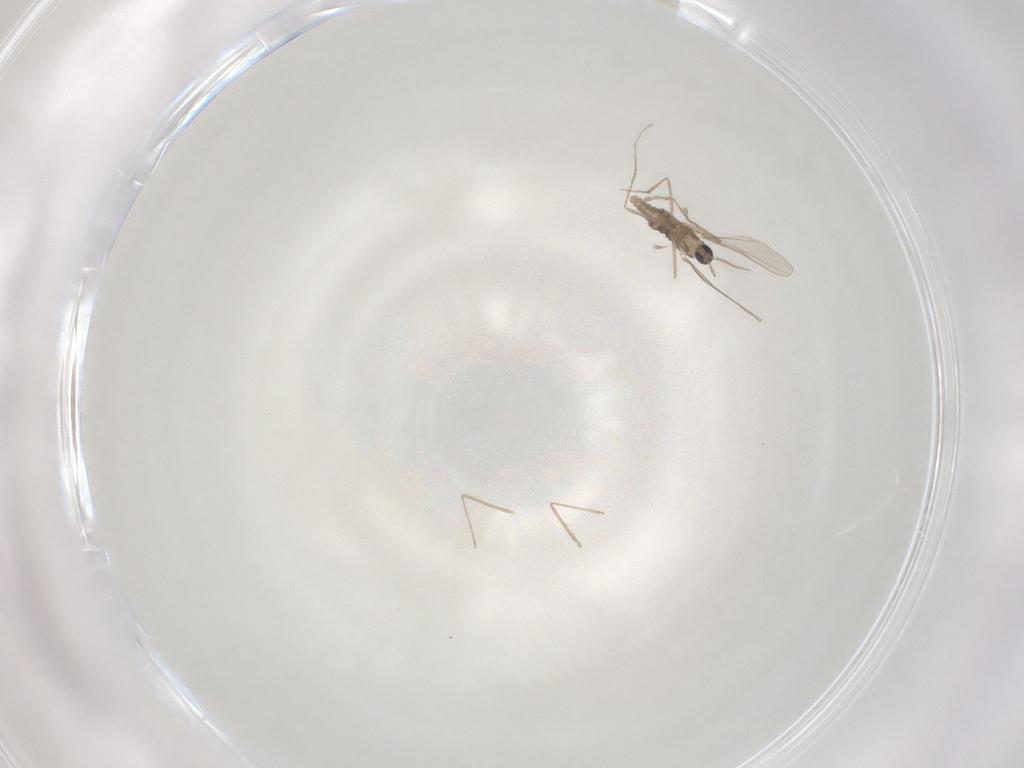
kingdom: Animalia
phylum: Arthropoda
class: Insecta
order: Diptera
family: Chironomidae
